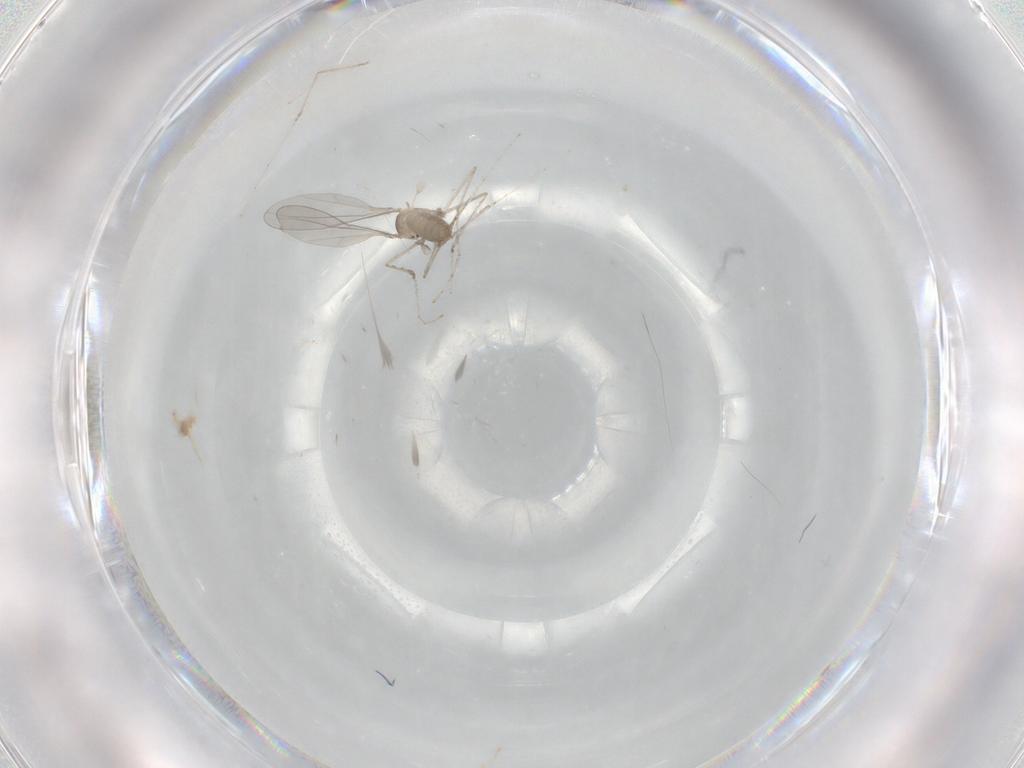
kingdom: Animalia
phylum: Arthropoda
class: Insecta
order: Diptera
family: Cecidomyiidae
